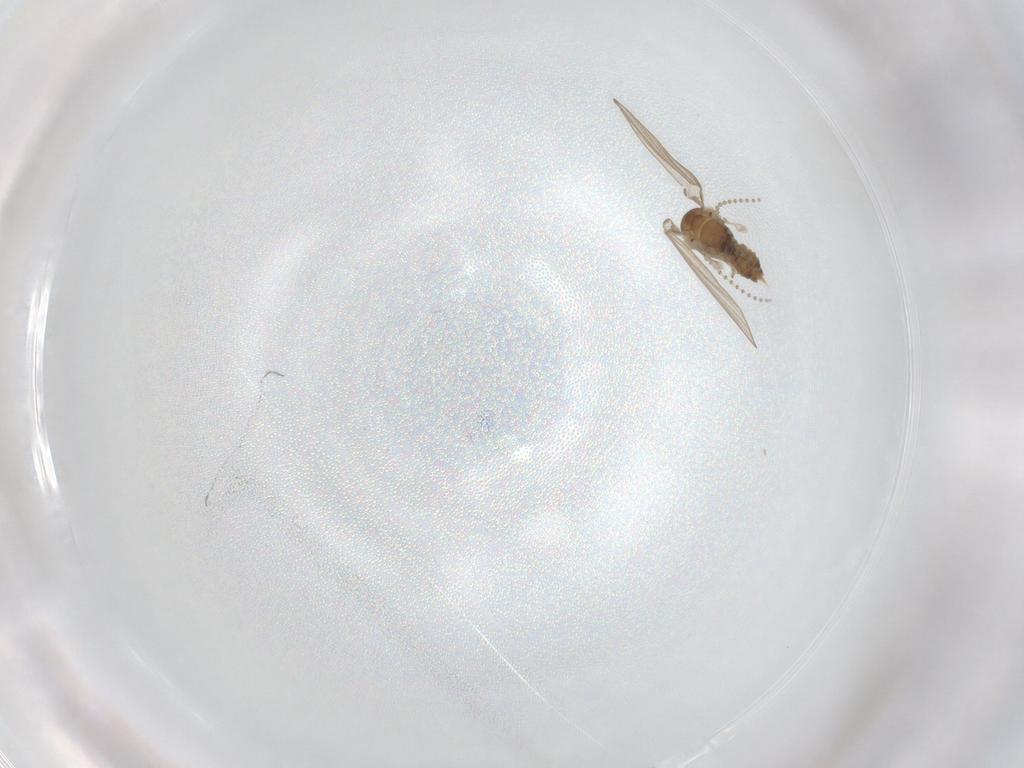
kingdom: Animalia
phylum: Arthropoda
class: Insecta
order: Diptera
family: Psychodidae
